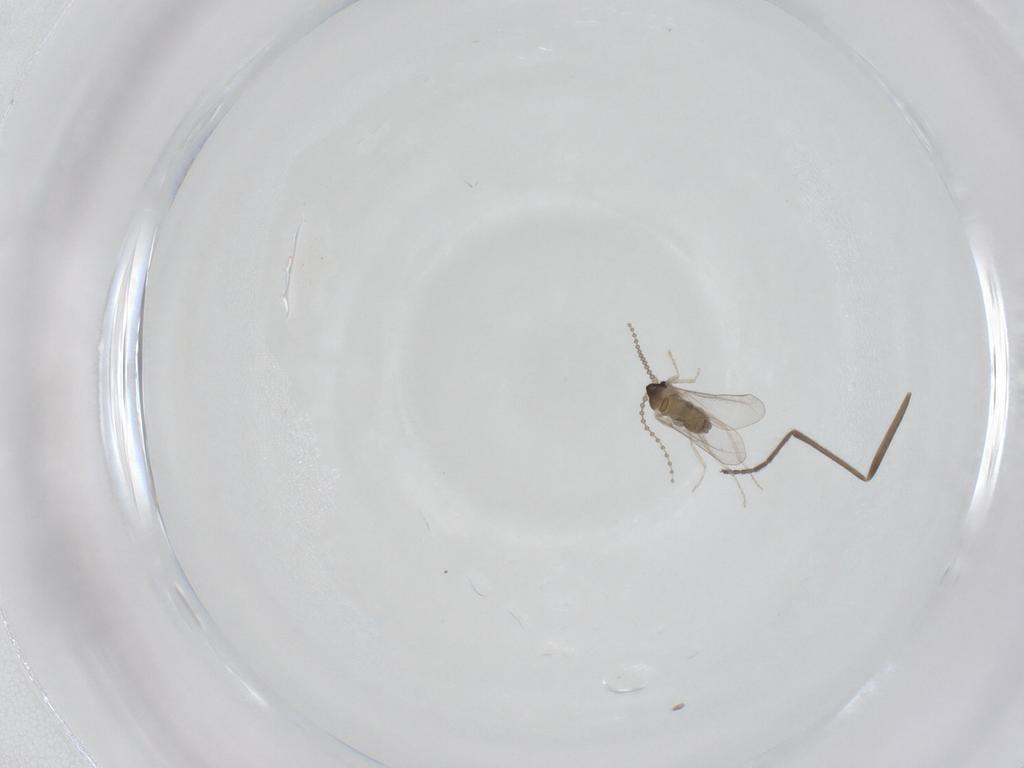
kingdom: Animalia
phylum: Arthropoda
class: Insecta
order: Diptera
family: Cecidomyiidae
